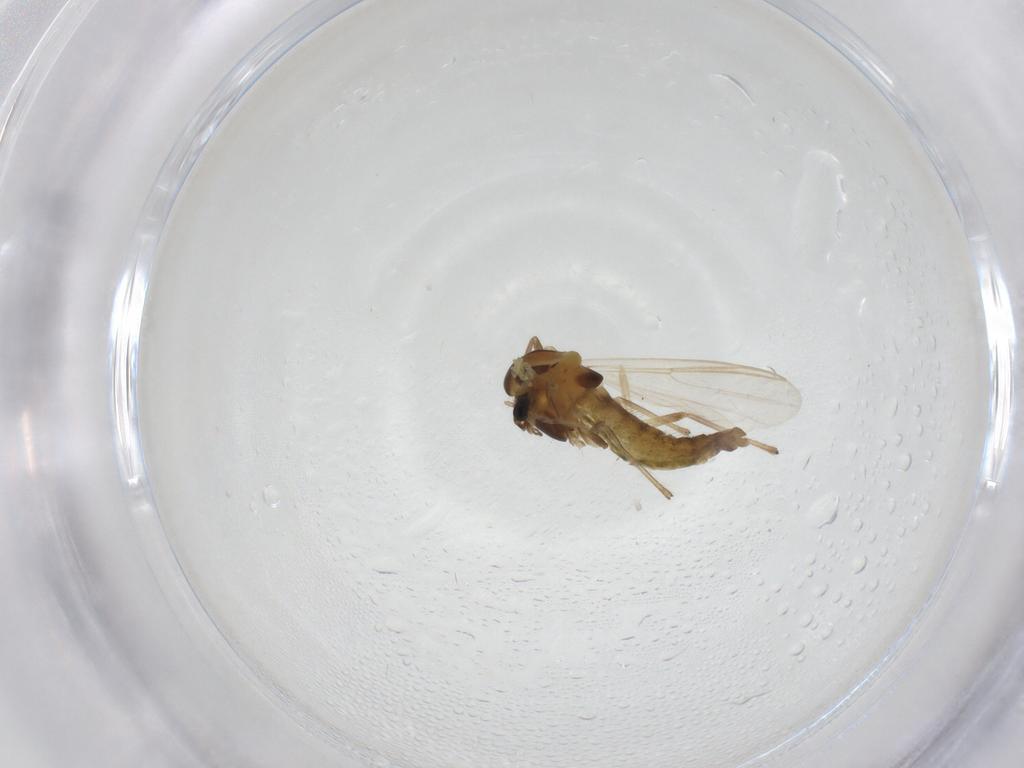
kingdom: Animalia
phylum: Arthropoda
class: Insecta
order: Diptera
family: Chironomidae
